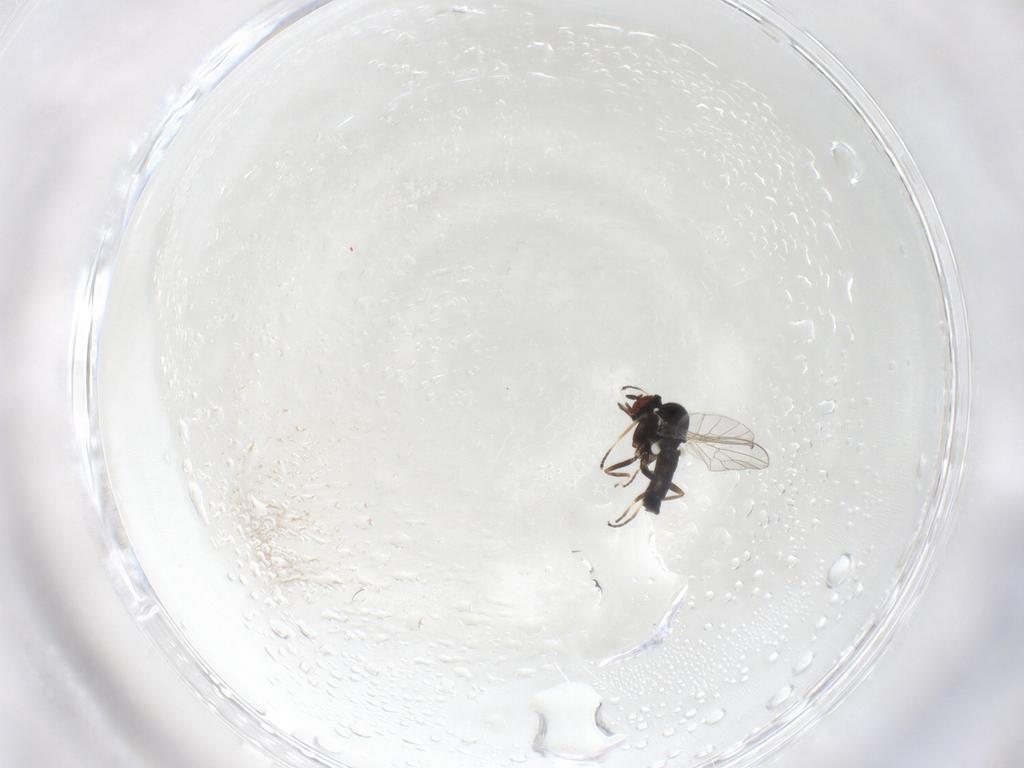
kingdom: Animalia
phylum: Arthropoda
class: Insecta
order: Diptera
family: Bombyliidae
